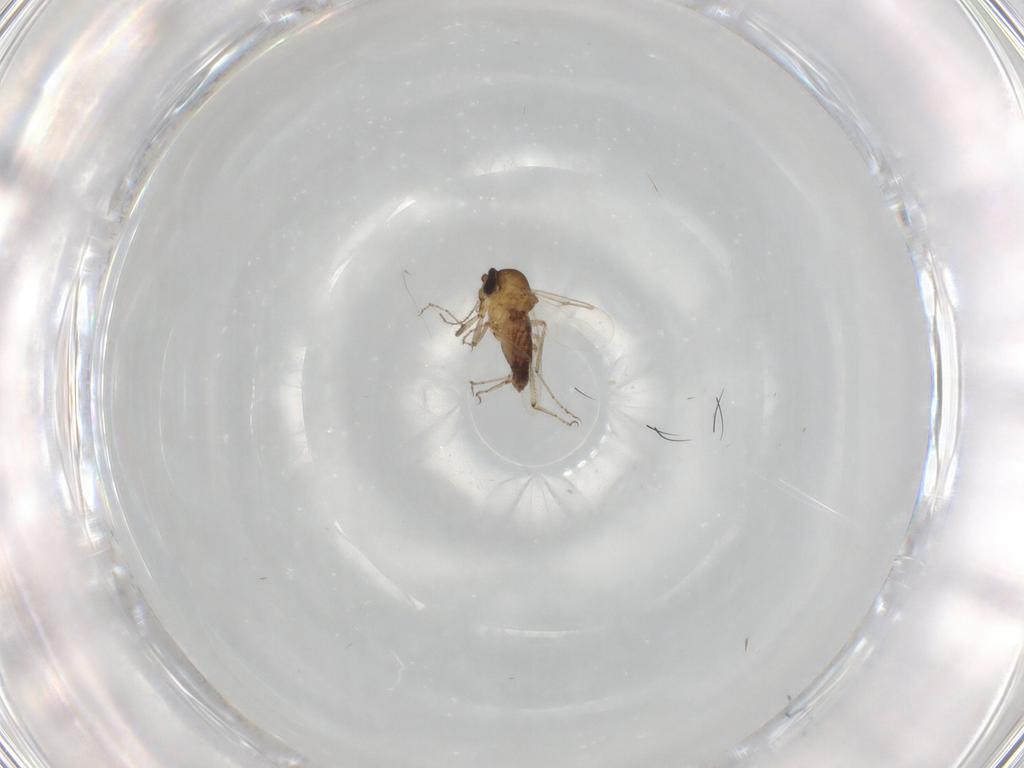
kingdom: Animalia
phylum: Arthropoda
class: Insecta
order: Diptera
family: Ceratopogonidae
